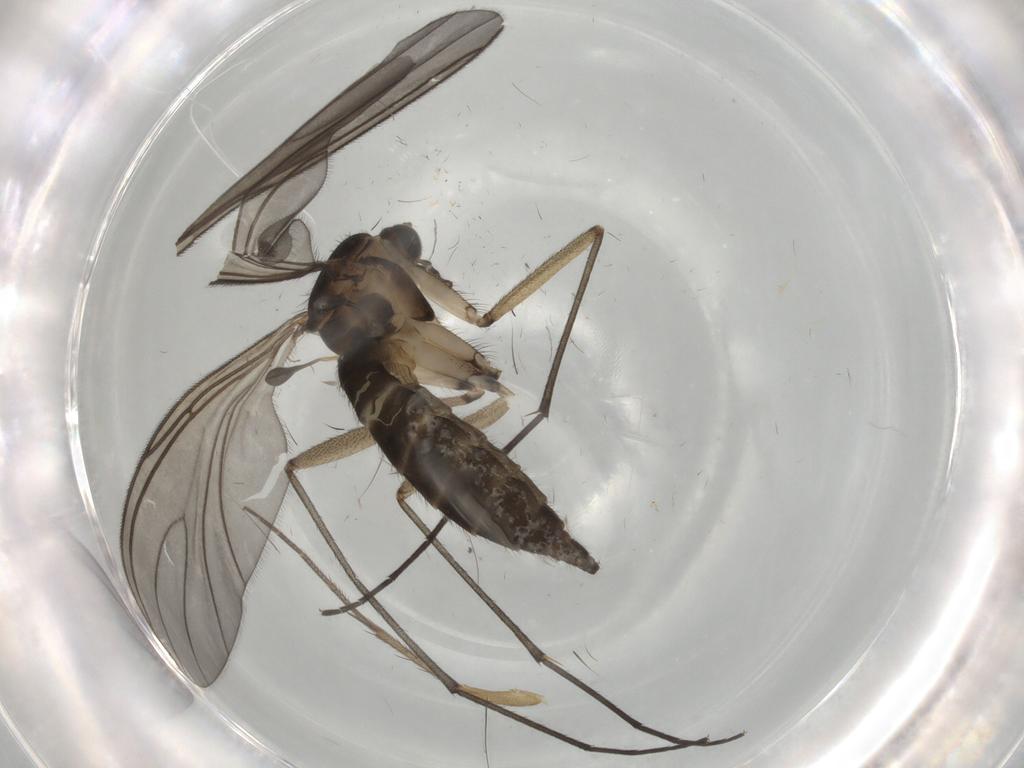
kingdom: Animalia
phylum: Arthropoda
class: Insecta
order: Diptera
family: Sciaridae
